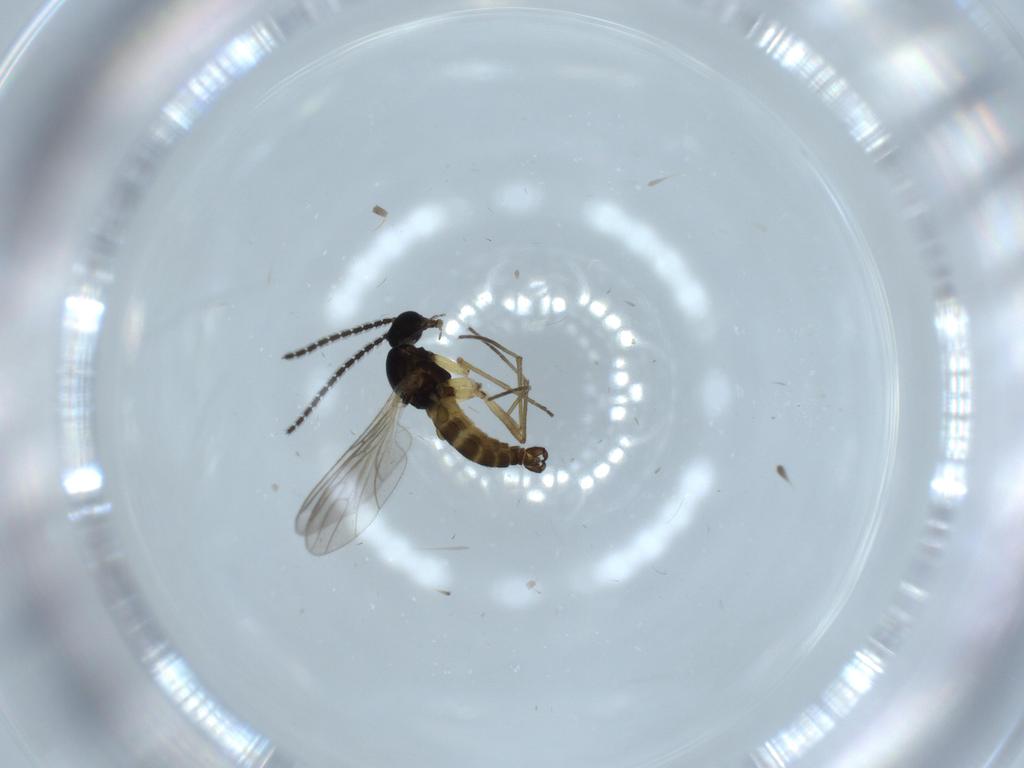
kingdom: Animalia
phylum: Arthropoda
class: Insecta
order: Diptera
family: Sciaridae
